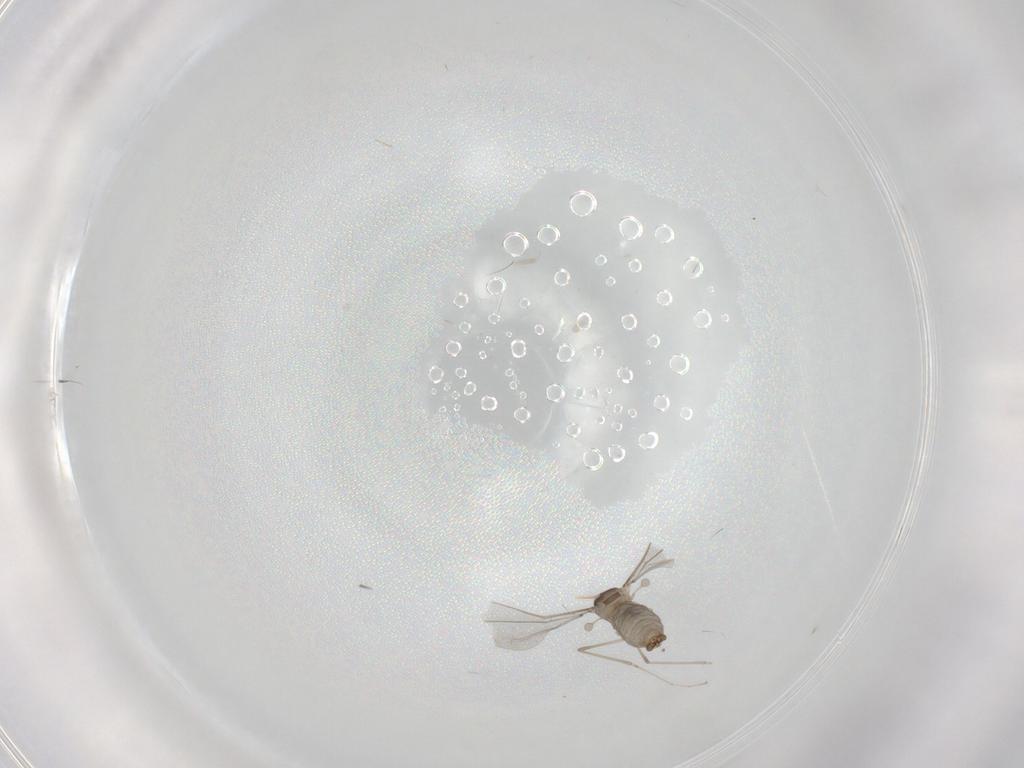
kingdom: Animalia
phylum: Arthropoda
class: Insecta
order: Diptera
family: Cecidomyiidae
